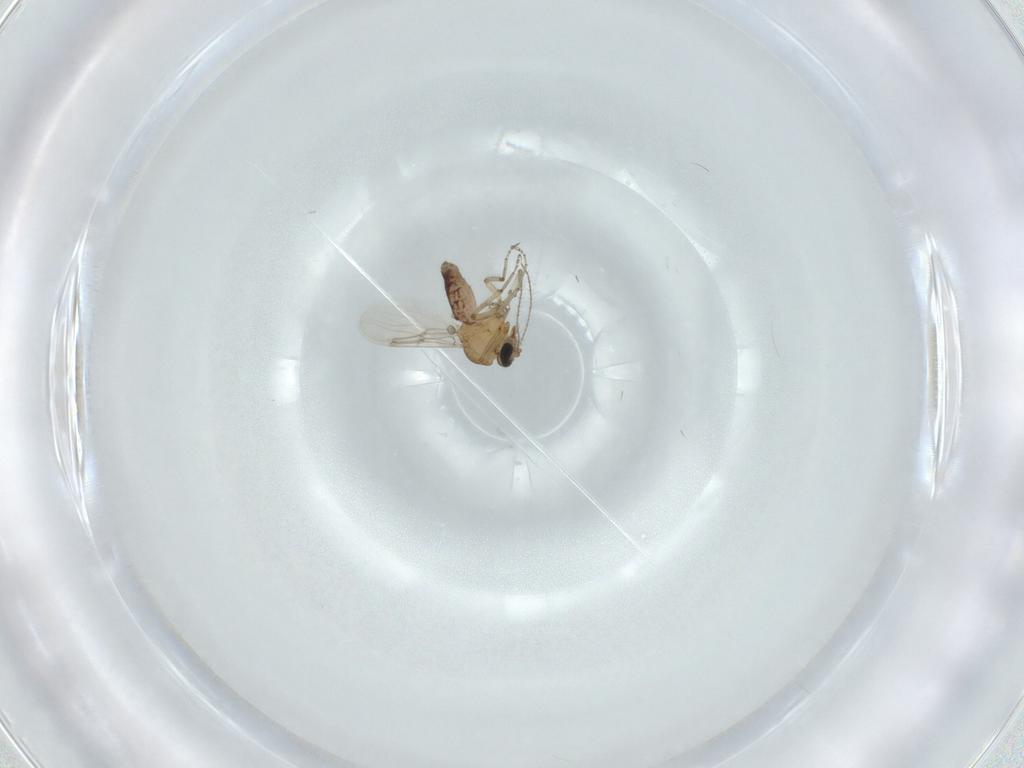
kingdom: Animalia
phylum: Arthropoda
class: Insecta
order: Diptera
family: Ceratopogonidae
